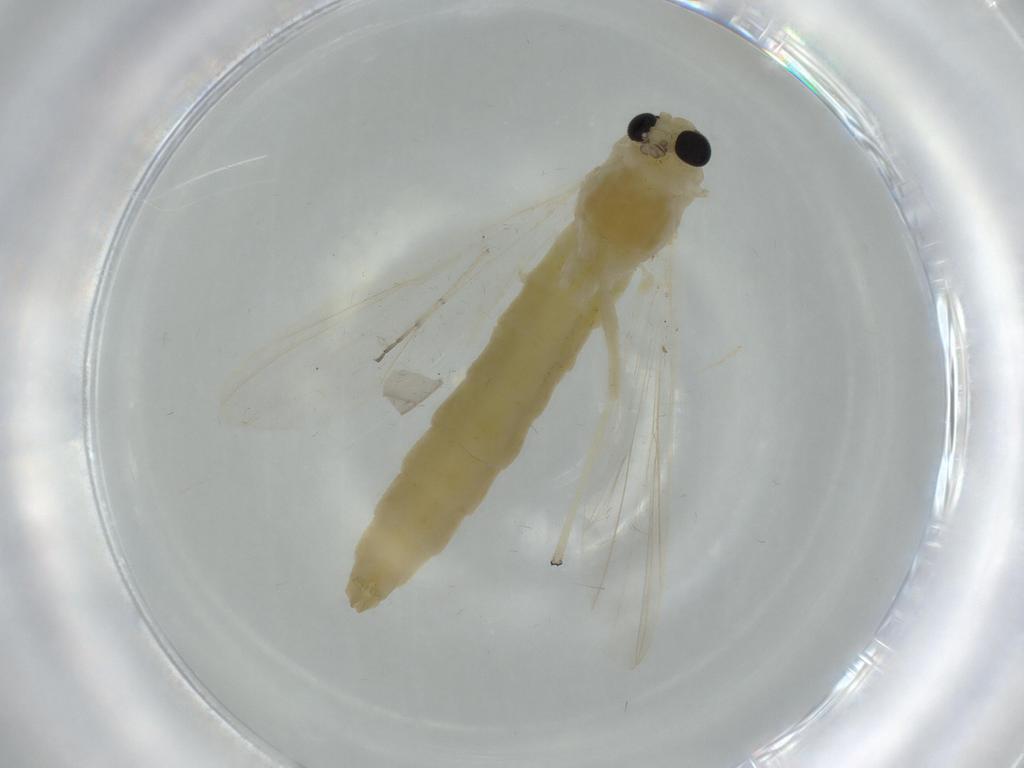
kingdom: Animalia
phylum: Arthropoda
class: Insecta
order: Diptera
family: Chironomidae
